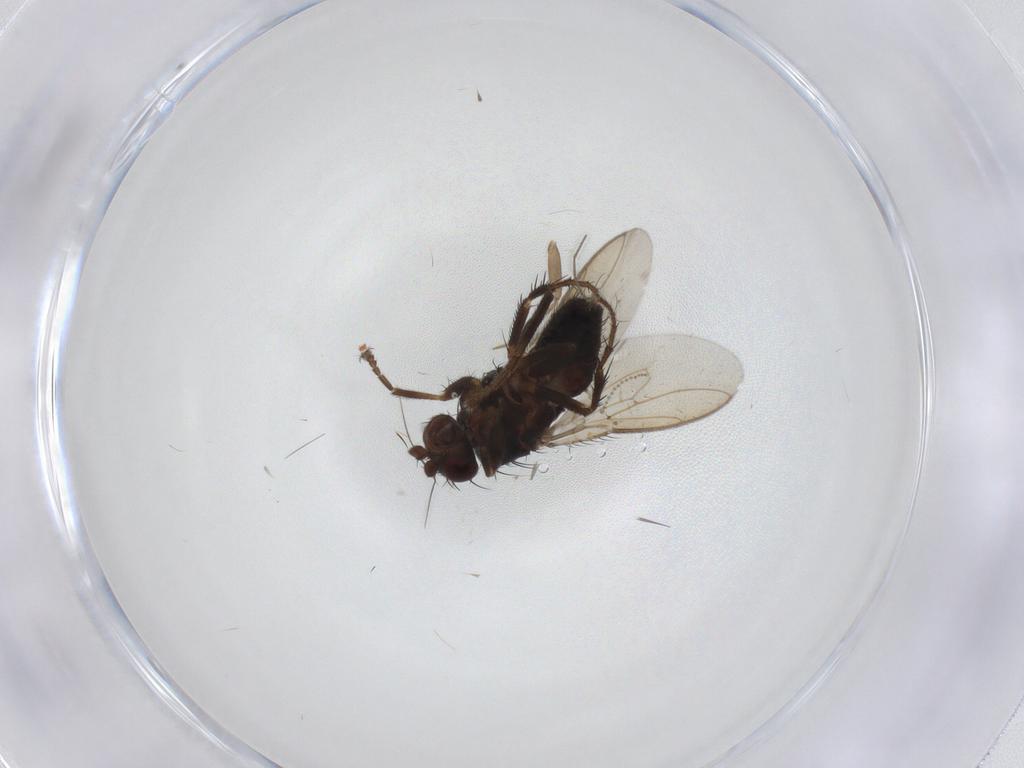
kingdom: Animalia
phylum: Arthropoda
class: Insecta
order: Diptera
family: Sphaeroceridae
